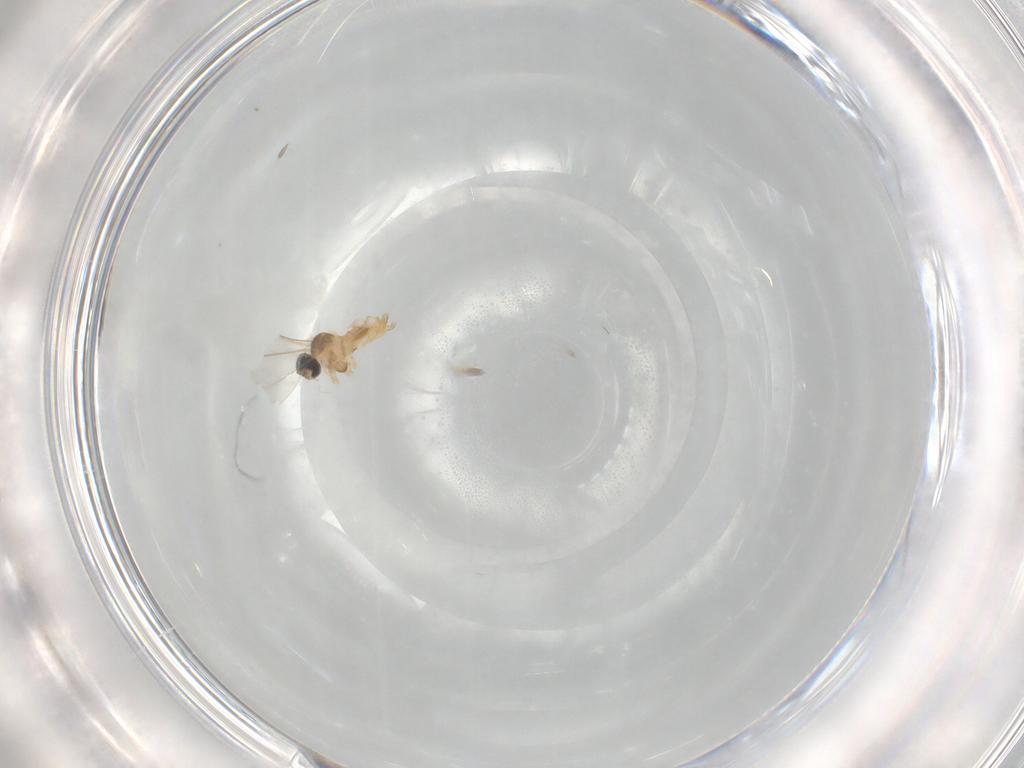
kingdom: Animalia
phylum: Arthropoda
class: Insecta
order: Diptera
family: Cecidomyiidae
